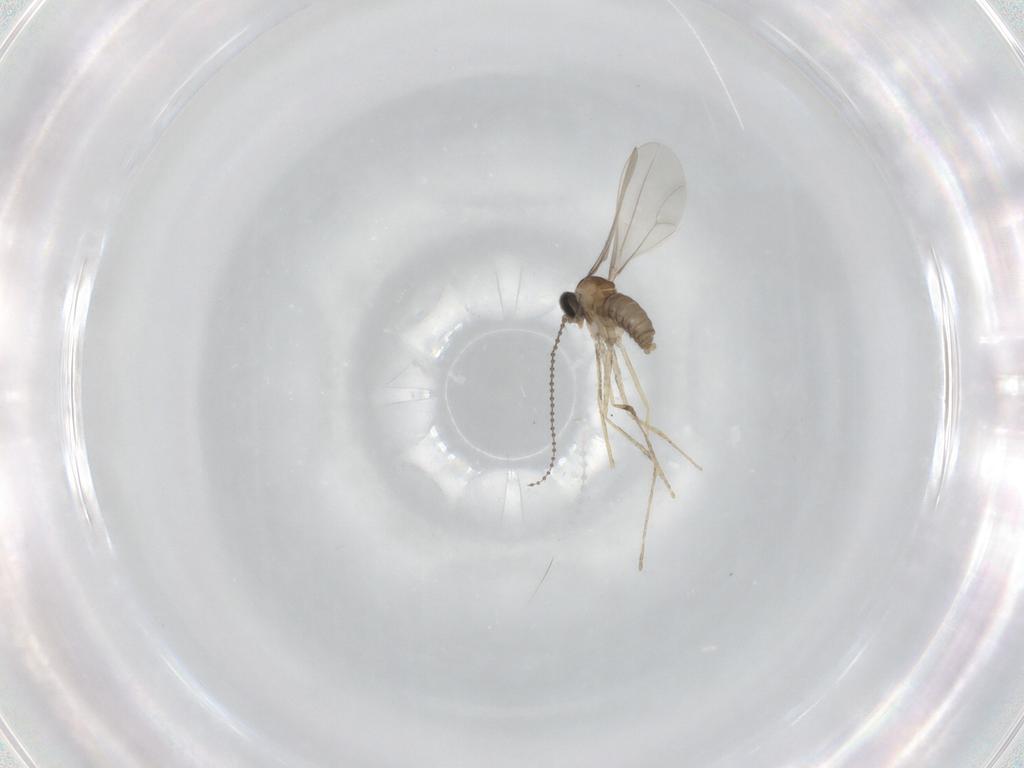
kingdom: Animalia
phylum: Arthropoda
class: Insecta
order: Diptera
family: Cecidomyiidae
